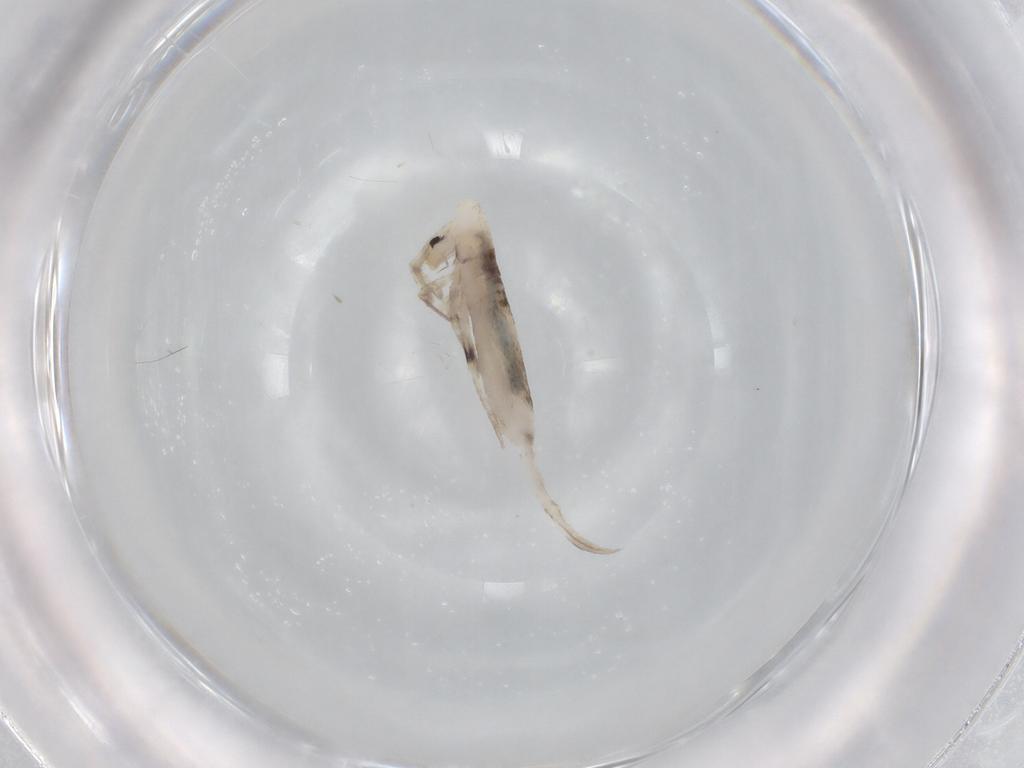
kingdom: Animalia
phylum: Arthropoda
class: Collembola
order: Entomobryomorpha
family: Entomobryidae
